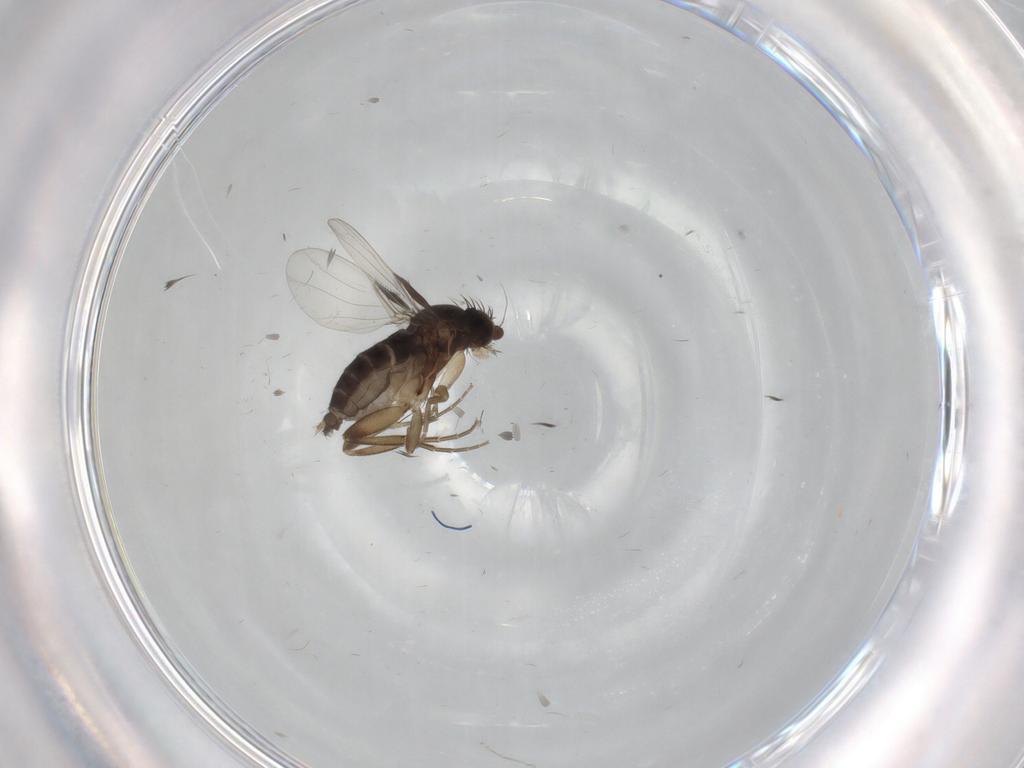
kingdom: Animalia
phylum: Arthropoda
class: Insecta
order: Diptera
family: Phoridae
